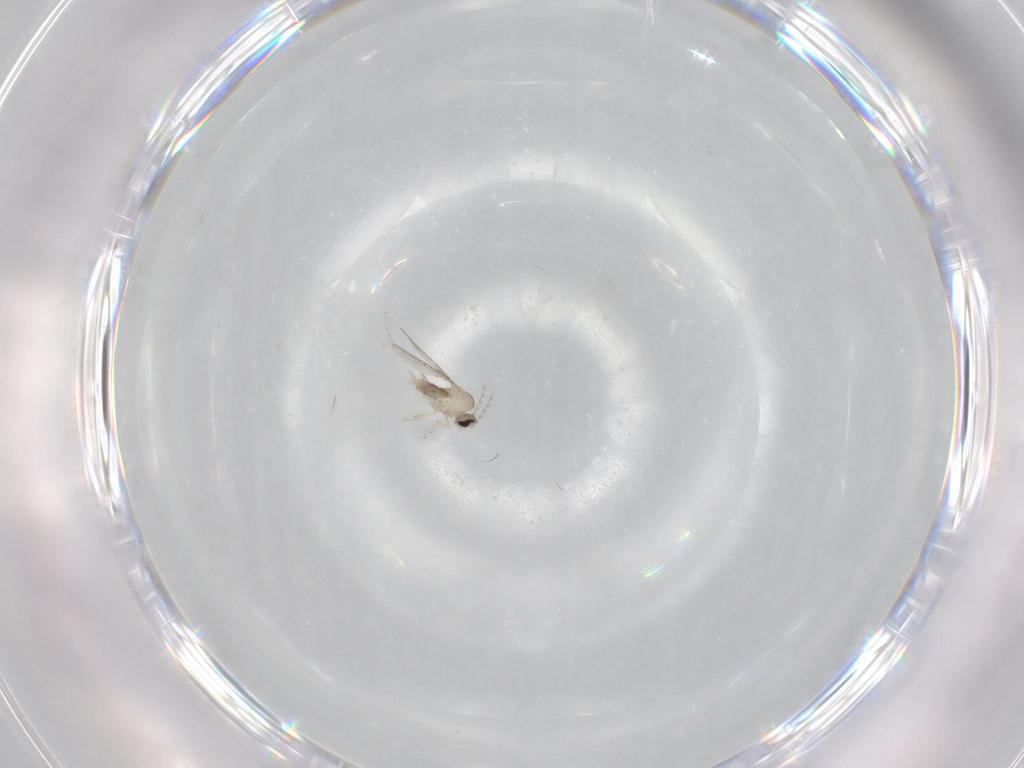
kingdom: Animalia
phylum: Arthropoda
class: Insecta
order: Diptera
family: Cecidomyiidae
